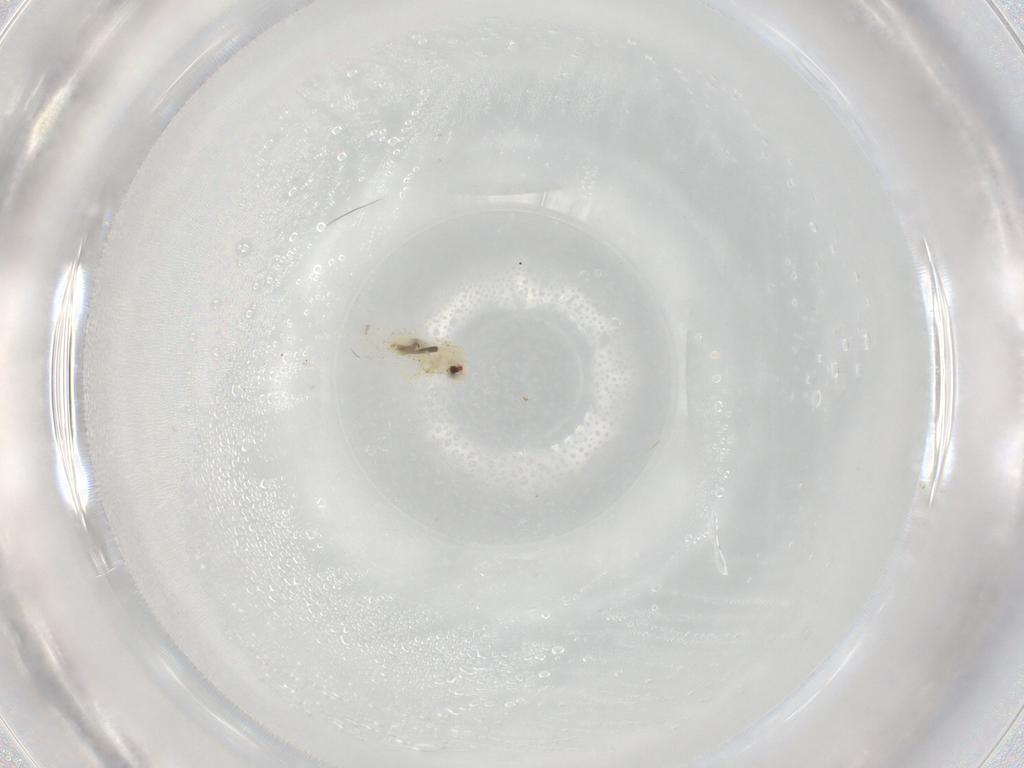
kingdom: Animalia
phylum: Arthropoda
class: Insecta
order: Hemiptera
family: Aleyrodidae
